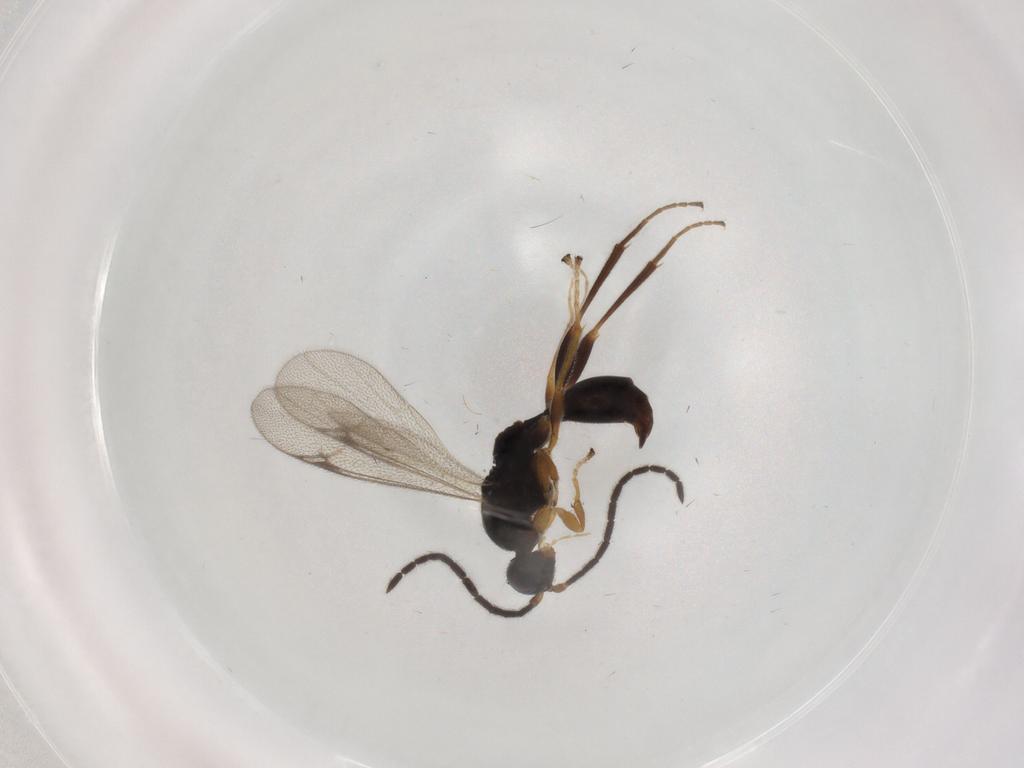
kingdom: Animalia
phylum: Arthropoda
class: Insecta
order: Hymenoptera
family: Proctotrupidae
